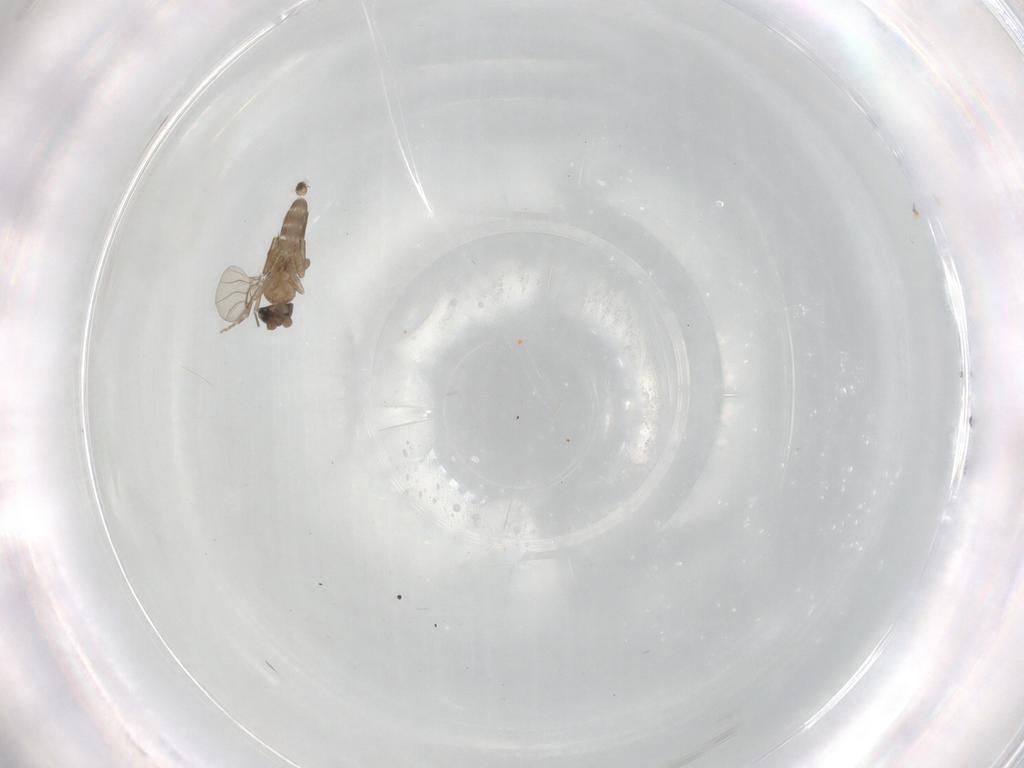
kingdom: Animalia
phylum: Arthropoda
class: Insecta
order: Diptera
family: Cecidomyiidae
